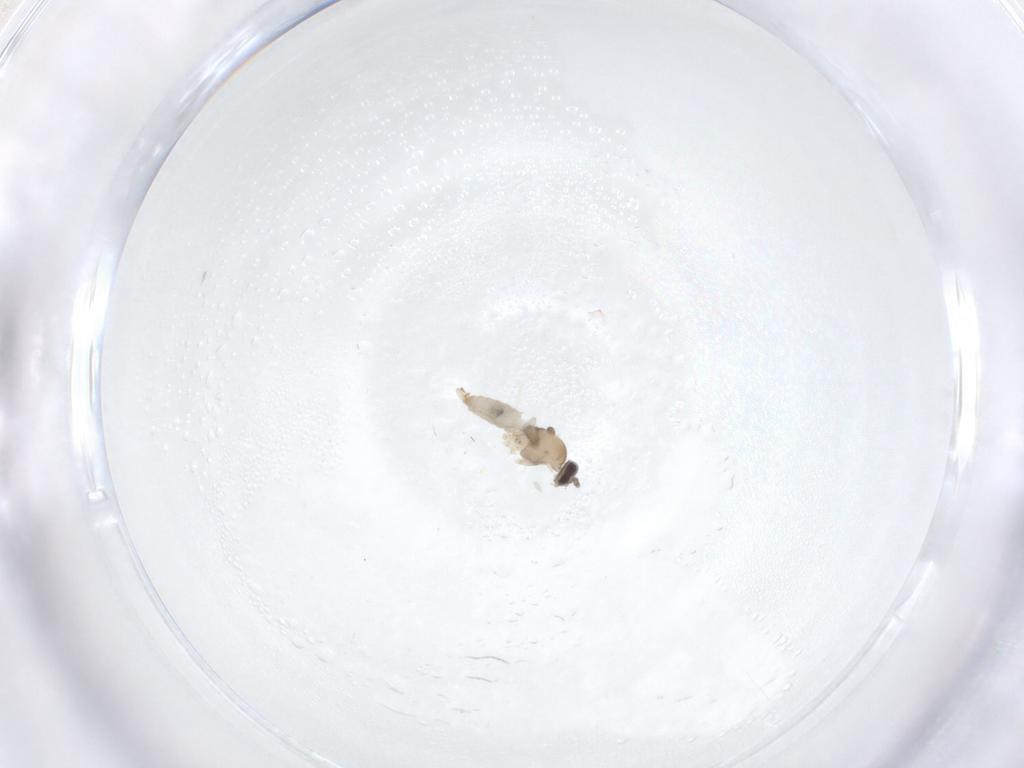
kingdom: Animalia
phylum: Arthropoda
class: Insecta
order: Diptera
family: Cecidomyiidae
